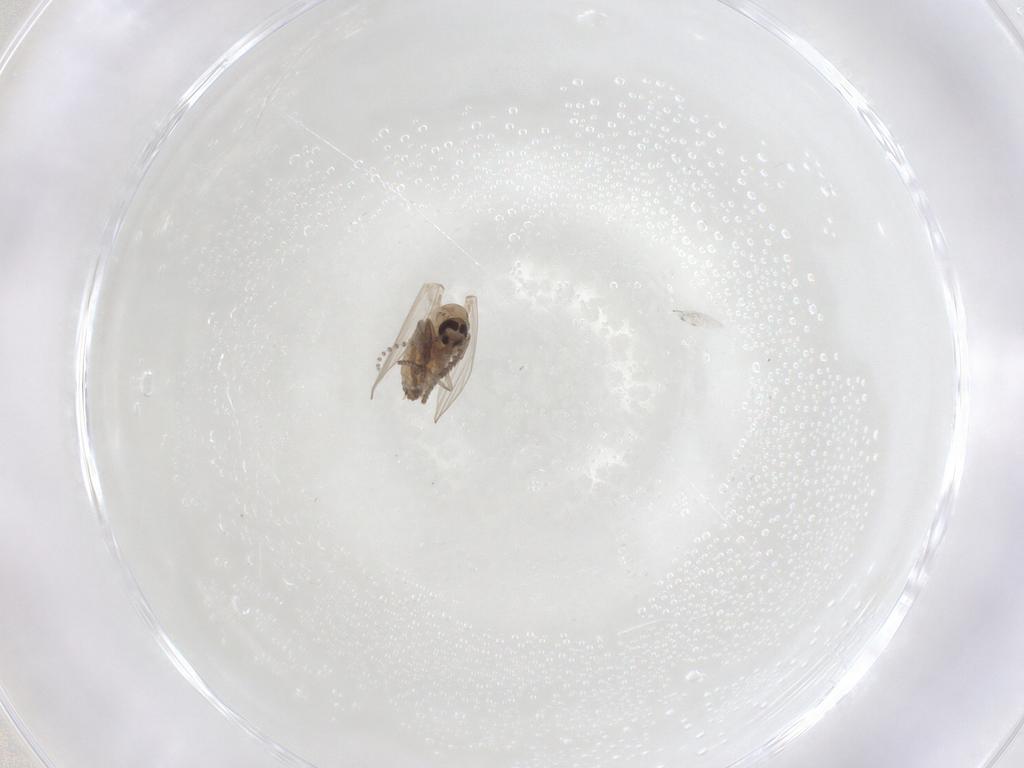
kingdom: Animalia
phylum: Arthropoda
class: Insecta
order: Diptera
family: Psychodidae
